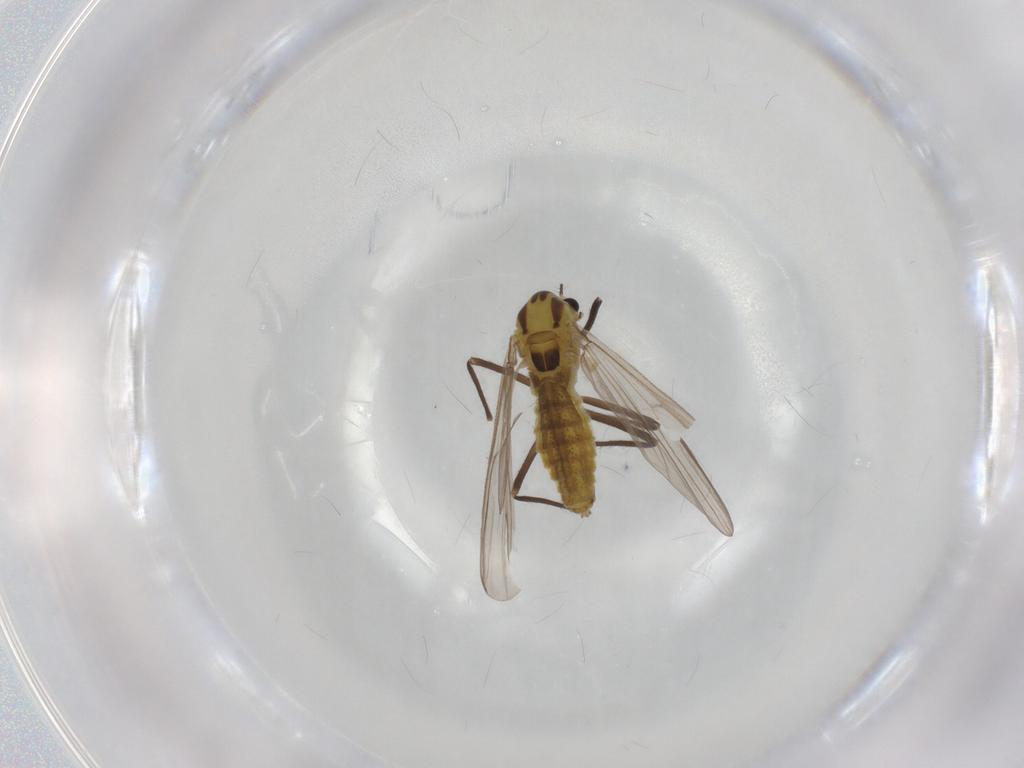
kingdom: Animalia
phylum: Arthropoda
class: Insecta
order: Diptera
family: Chironomidae
